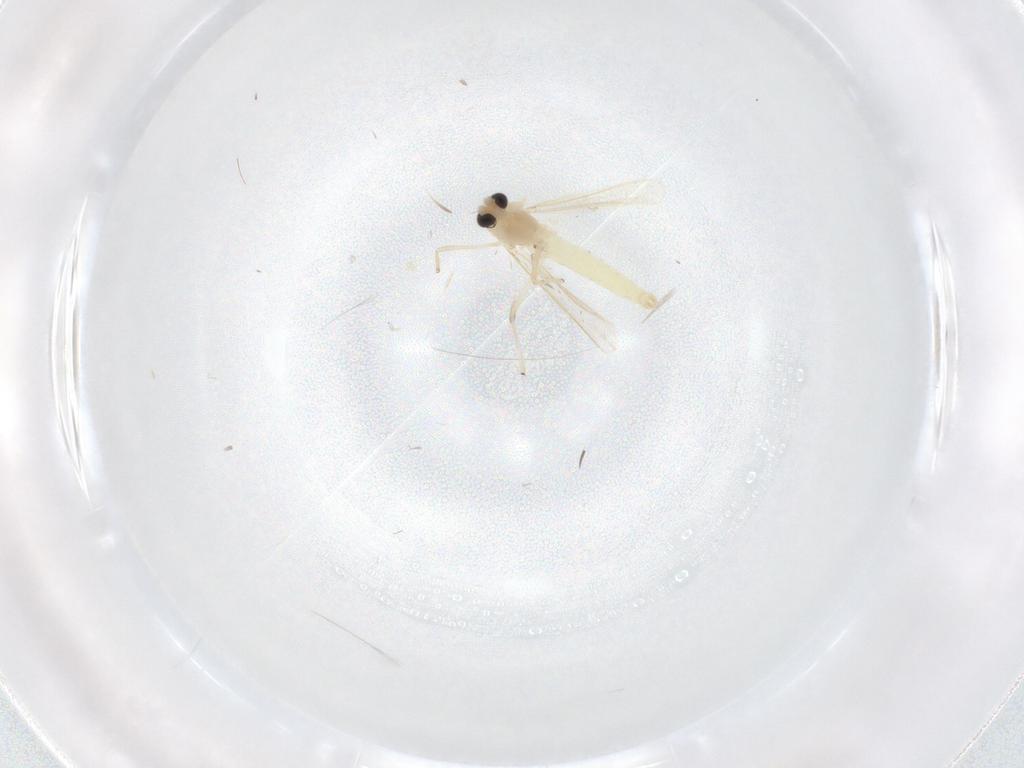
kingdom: Animalia
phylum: Arthropoda
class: Insecta
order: Diptera
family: Chironomidae
